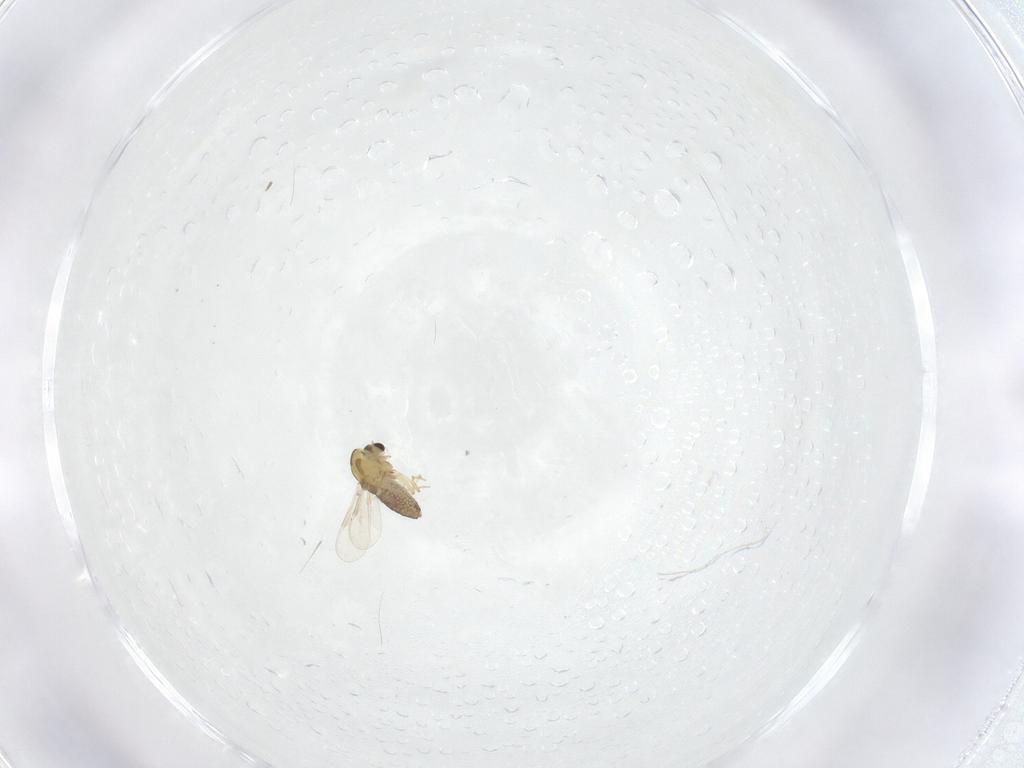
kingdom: Animalia
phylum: Arthropoda
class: Insecta
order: Diptera
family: Chironomidae
